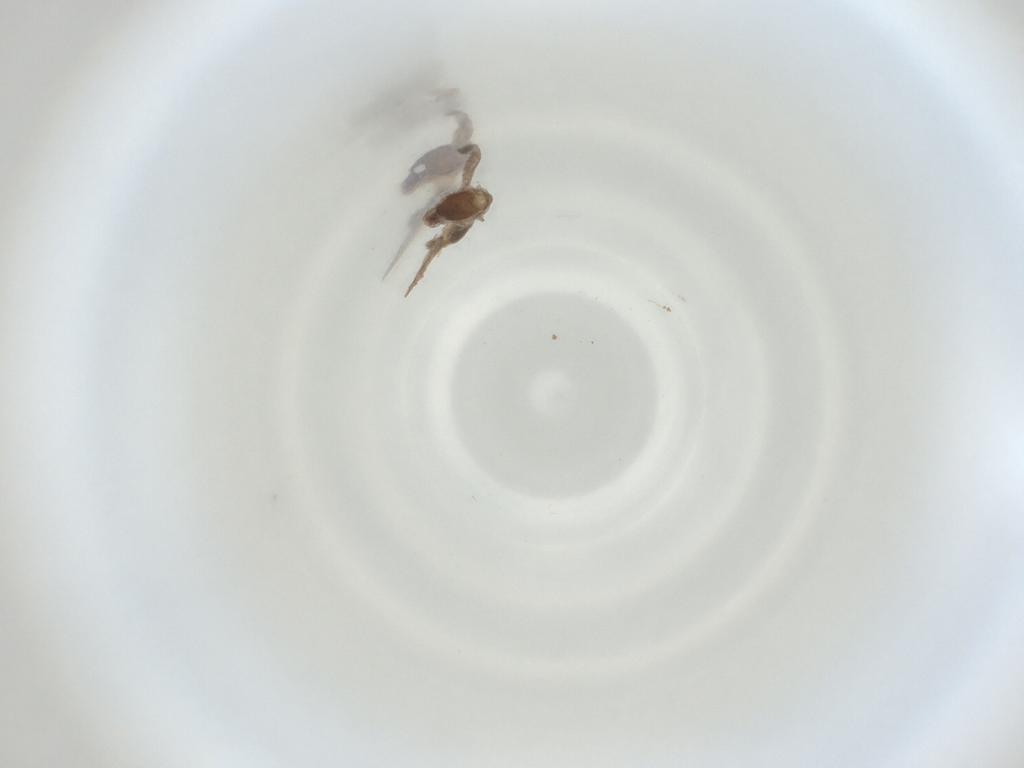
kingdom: Animalia
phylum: Arthropoda
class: Insecta
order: Diptera
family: Cecidomyiidae
